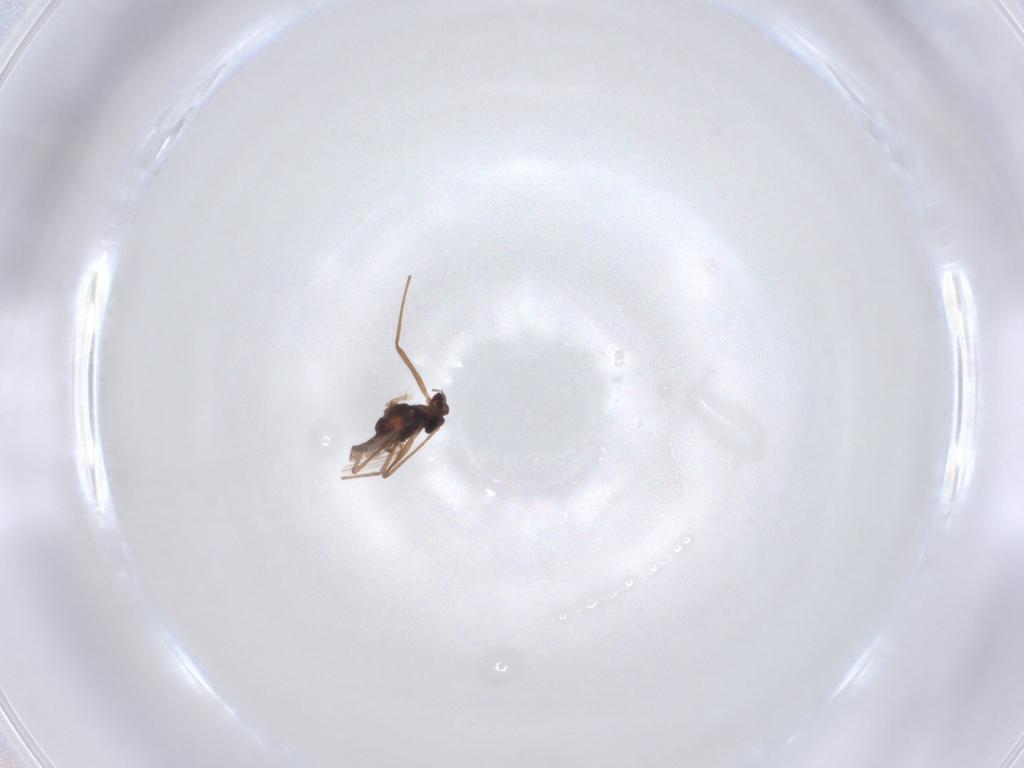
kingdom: Animalia
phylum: Arthropoda
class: Insecta
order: Diptera
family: Chironomidae
